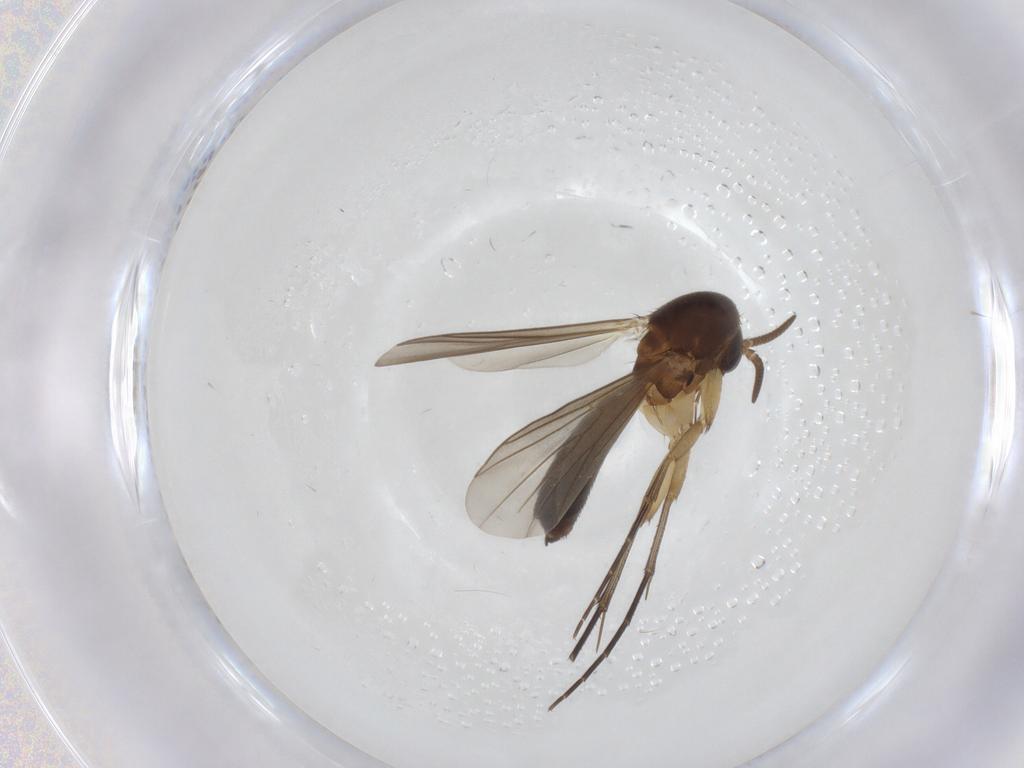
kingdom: Animalia
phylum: Arthropoda
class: Insecta
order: Diptera
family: Mycetophilidae
